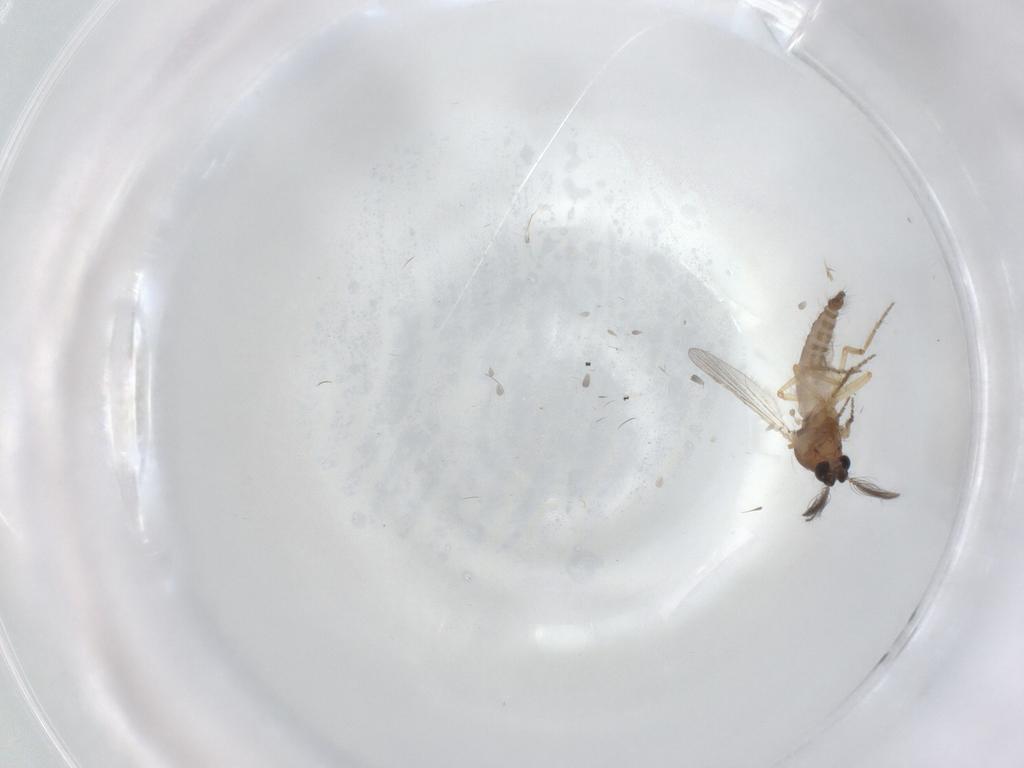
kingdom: Animalia
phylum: Arthropoda
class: Insecta
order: Diptera
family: Ceratopogonidae
